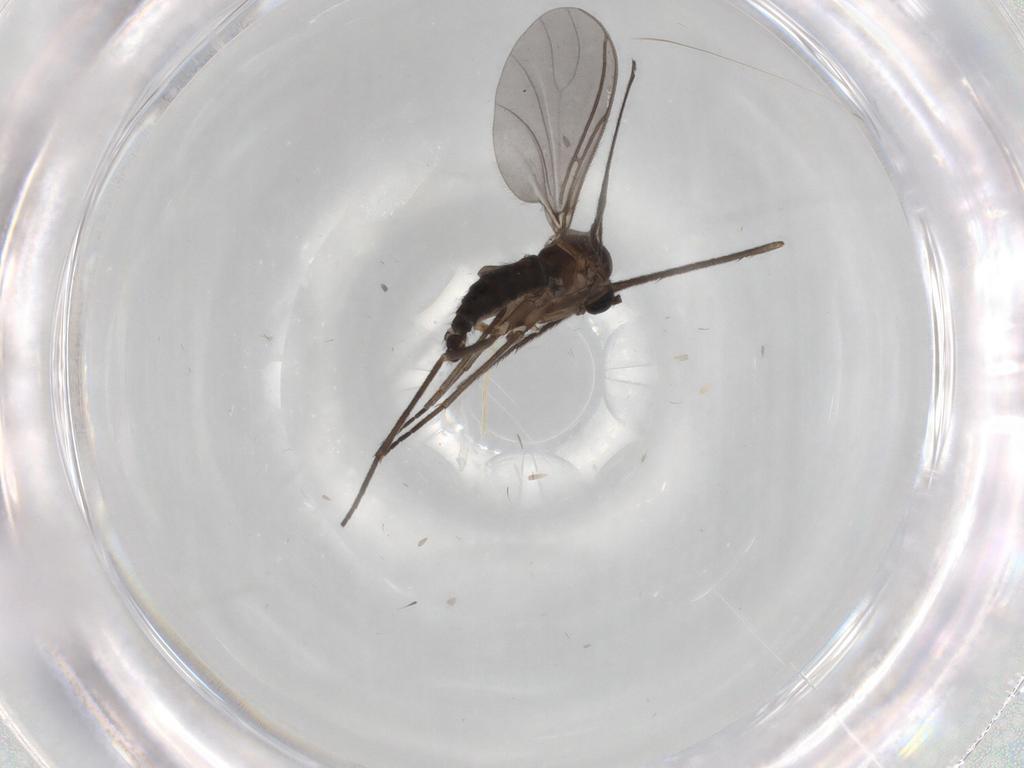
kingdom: Animalia
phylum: Arthropoda
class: Insecta
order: Diptera
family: Sciaridae
